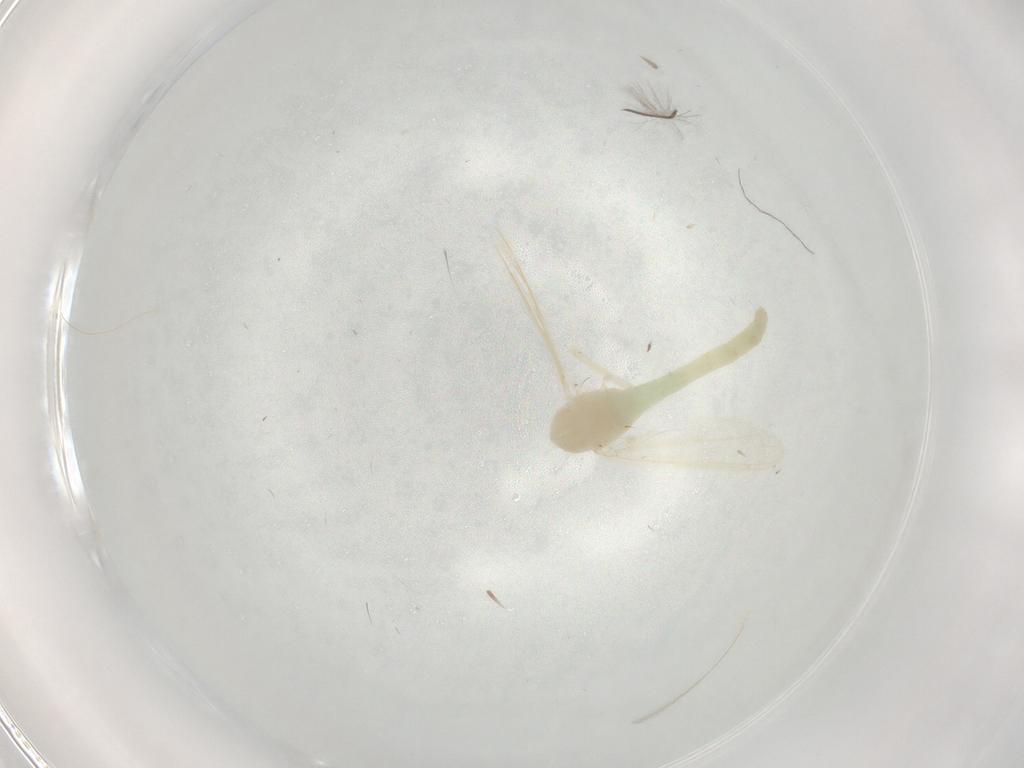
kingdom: Animalia
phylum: Arthropoda
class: Insecta
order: Diptera
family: Chironomidae
